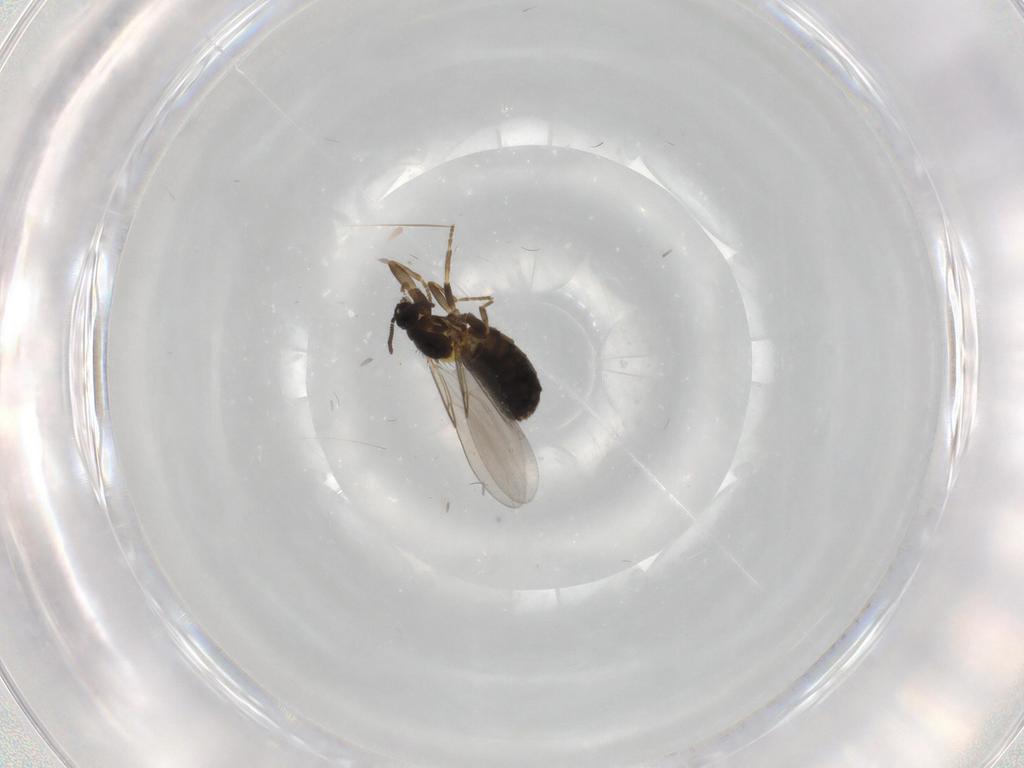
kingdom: Animalia
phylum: Arthropoda
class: Insecta
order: Diptera
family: Scatopsidae
